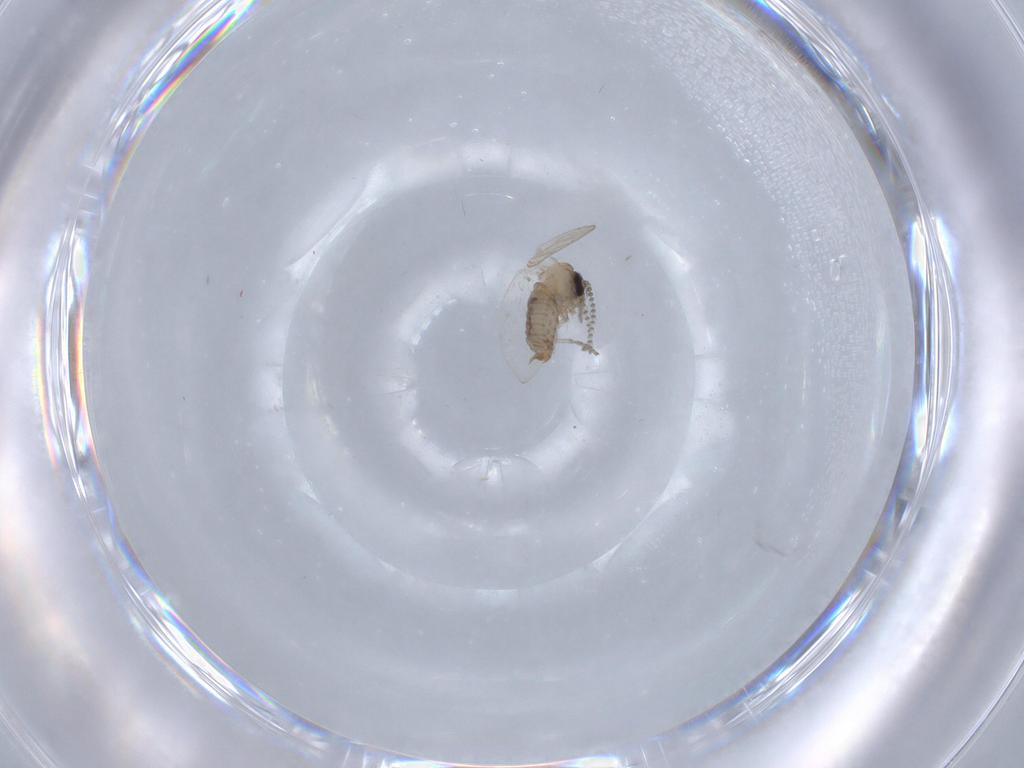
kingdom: Animalia
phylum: Arthropoda
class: Insecta
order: Diptera
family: Psychodidae
